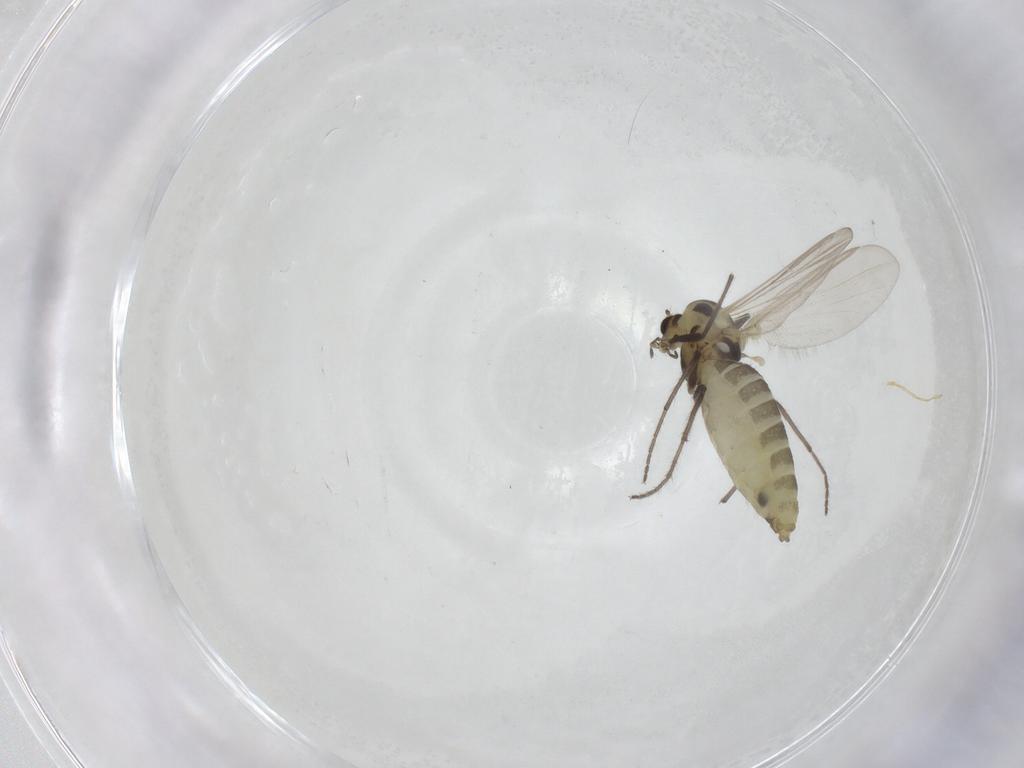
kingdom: Animalia
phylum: Arthropoda
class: Insecta
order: Diptera
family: Chironomidae
